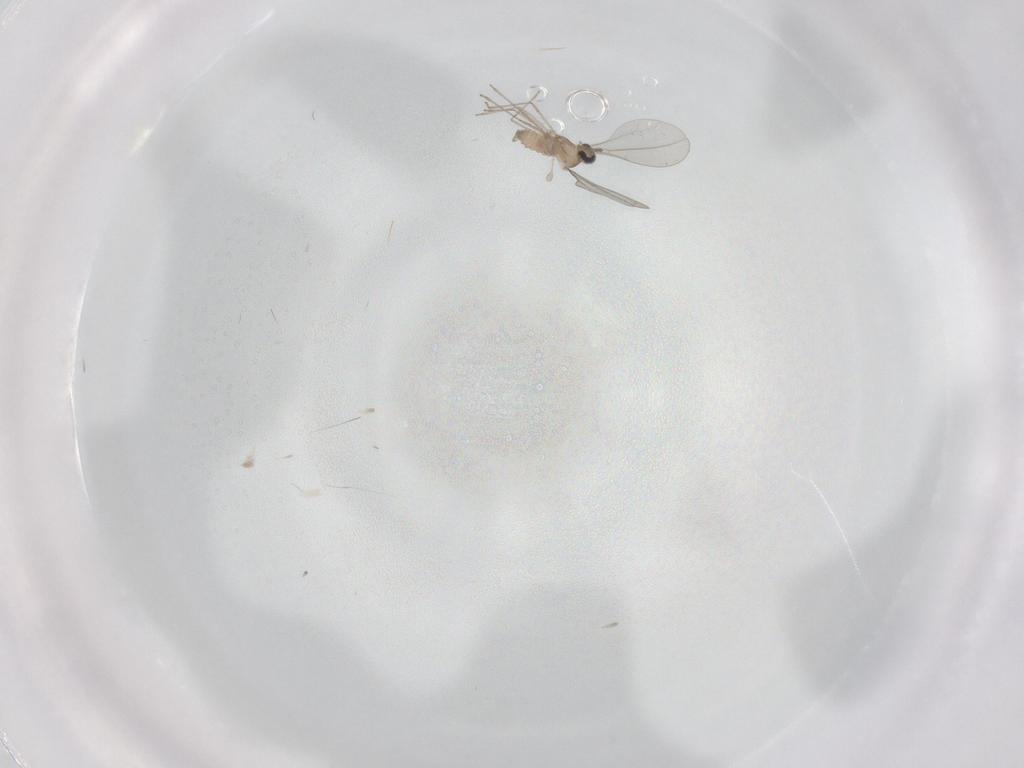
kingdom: Animalia
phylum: Arthropoda
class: Insecta
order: Diptera
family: Cecidomyiidae
